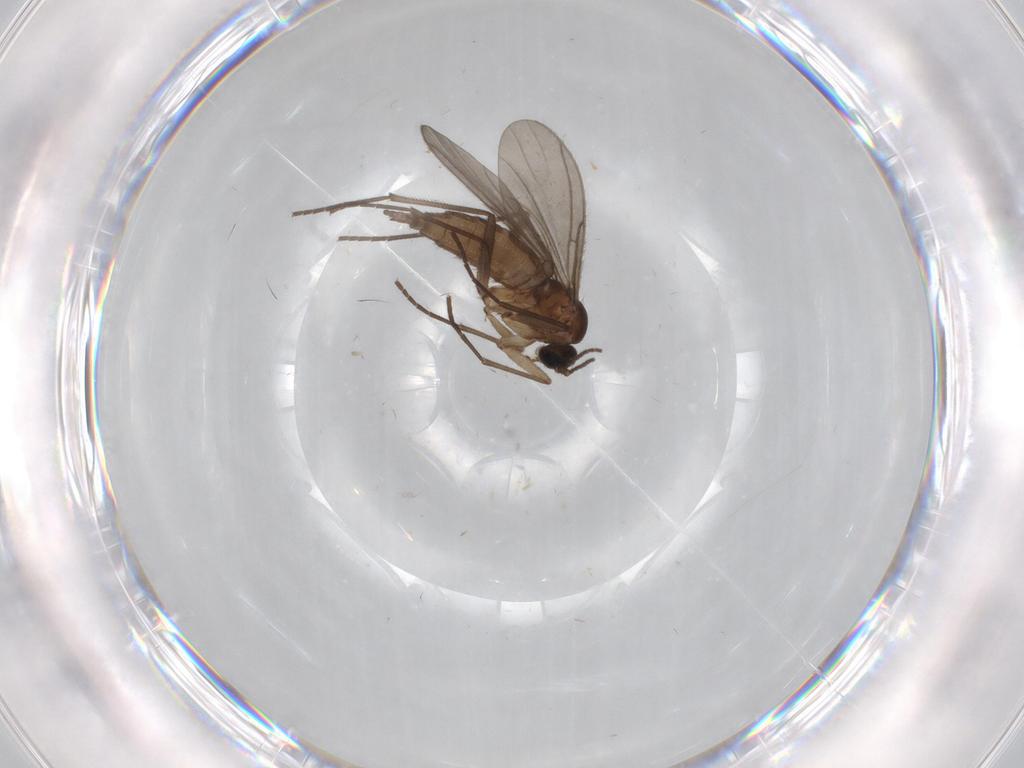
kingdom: Animalia
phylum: Arthropoda
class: Insecta
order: Diptera
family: Sciaridae
